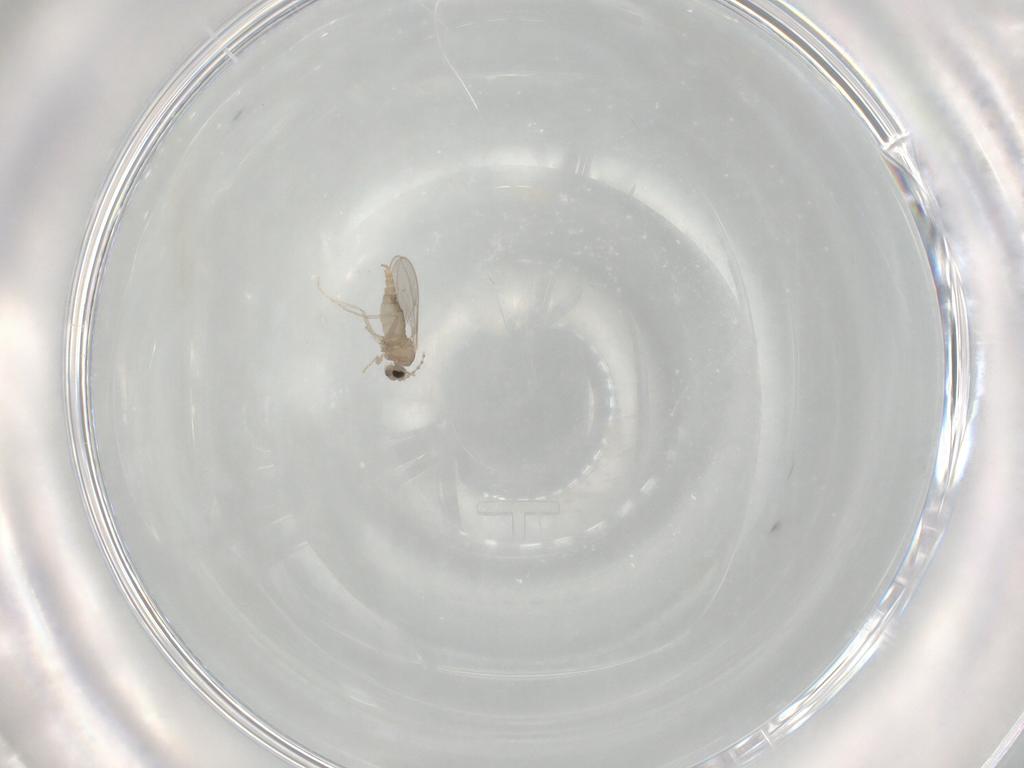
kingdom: Animalia
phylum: Arthropoda
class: Insecta
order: Diptera
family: Cecidomyiidae
